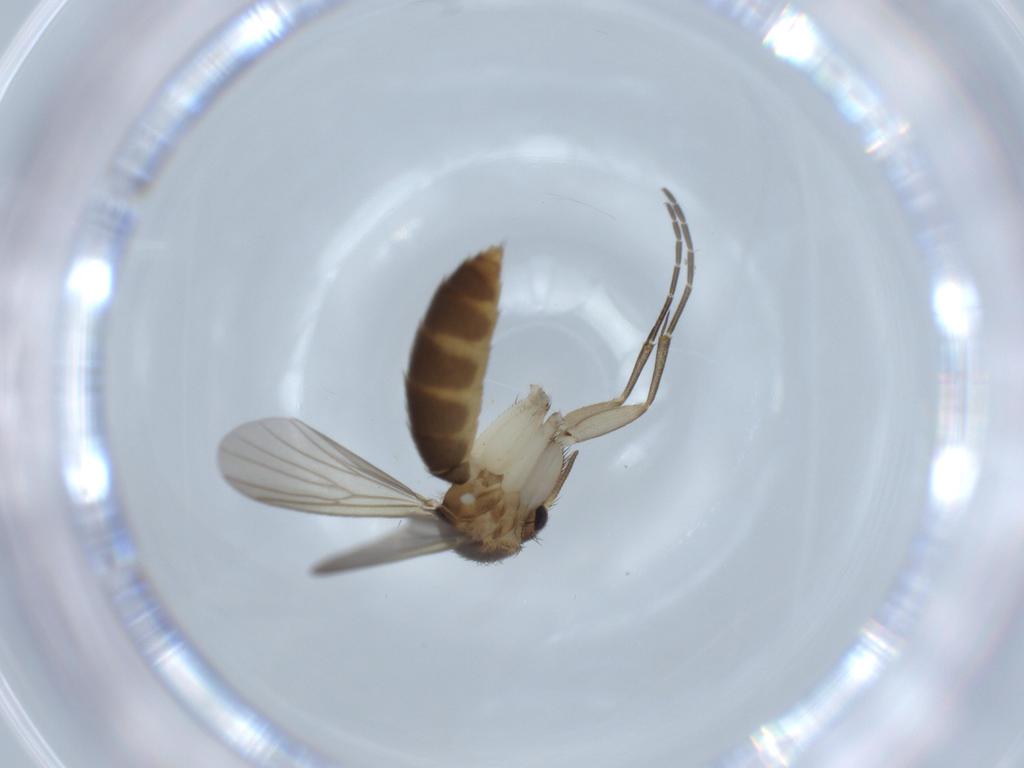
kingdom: Animalia
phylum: Arthropoda
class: Insecta
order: Diptera
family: Mycetophilidae
